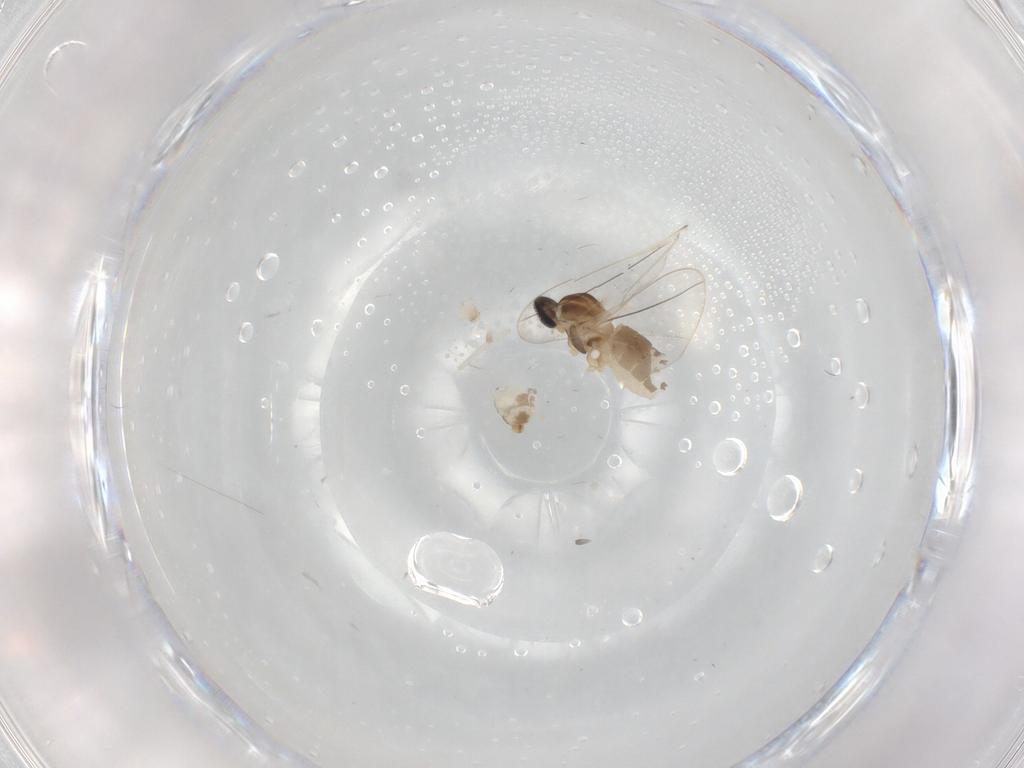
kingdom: Animalia
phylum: Arthropoda
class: Insecta
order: Diptera
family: Cecidomyiidae
